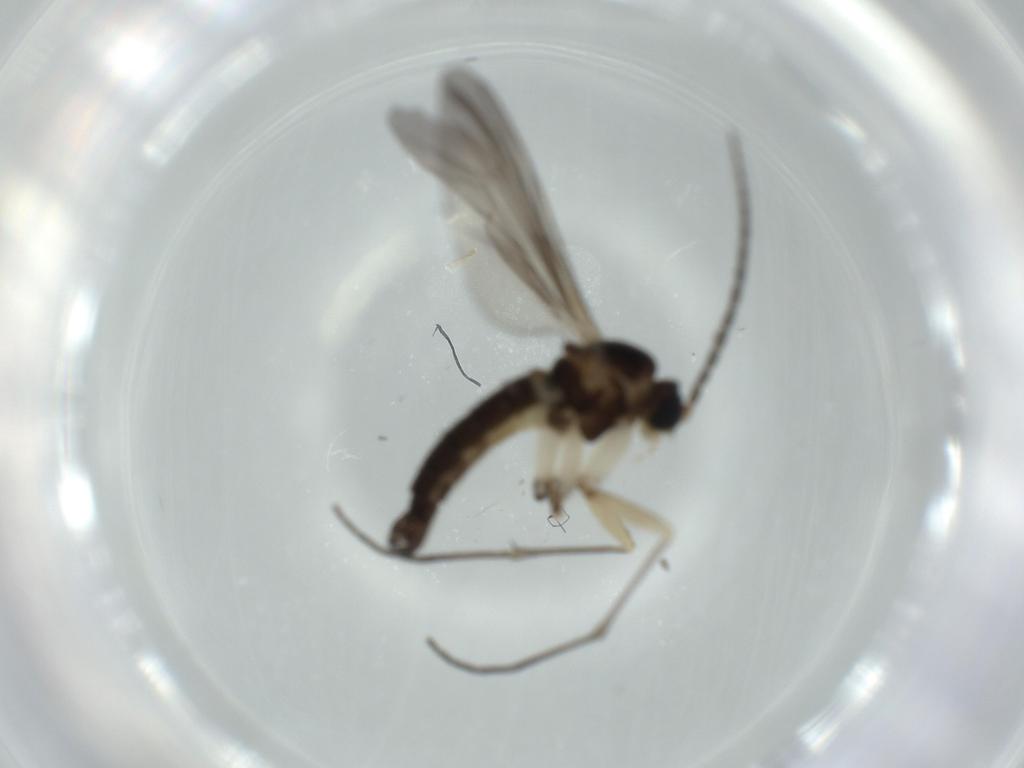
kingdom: Animalia
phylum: Arthropoda
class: Insecta
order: Diptera
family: Sciaridae
